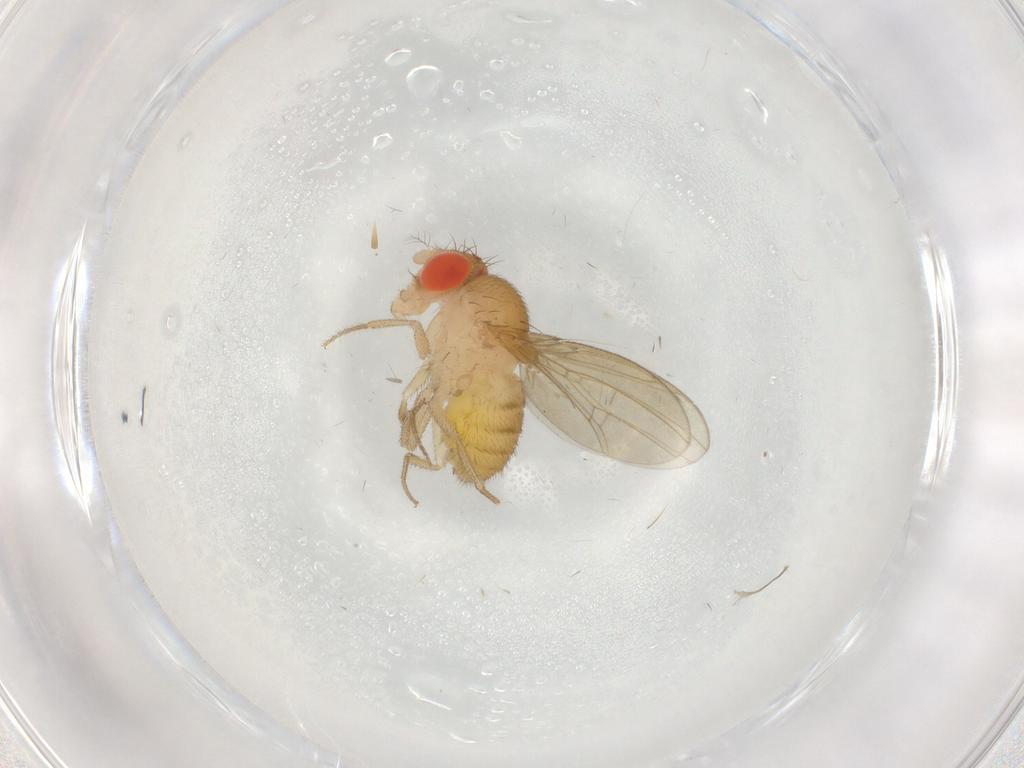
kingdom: Animalia
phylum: Arthropoda
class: Insecta
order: Diptera
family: Drosophilidae
